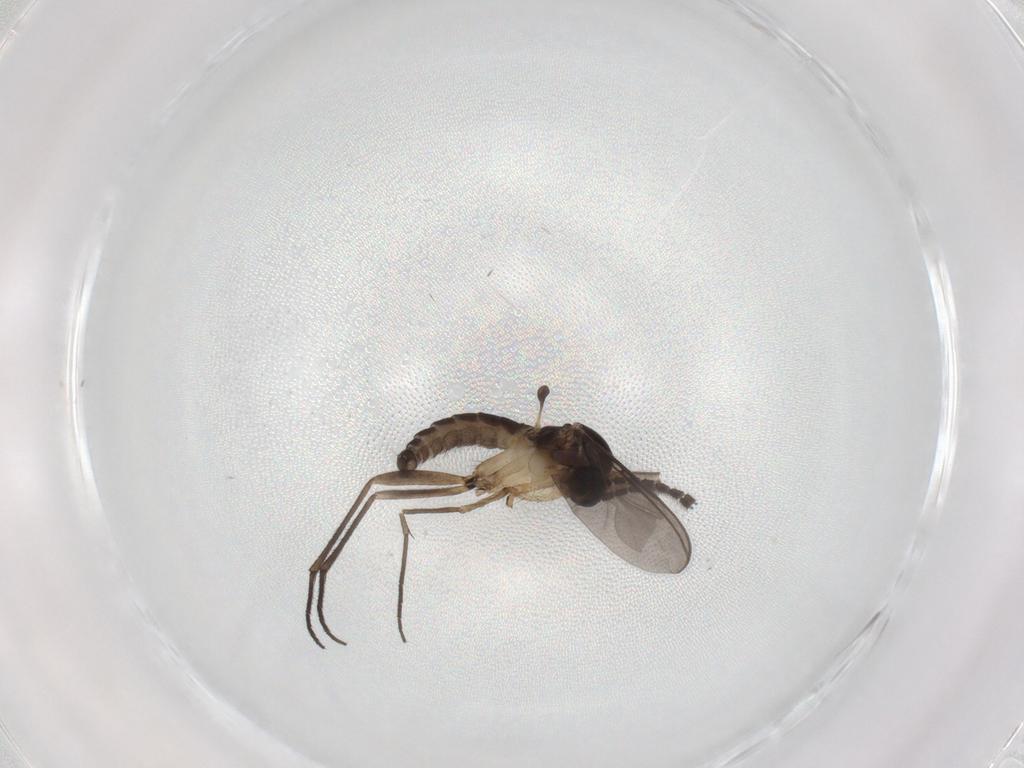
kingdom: Animalia
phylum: Arthropoda
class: Insecta
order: Diptera
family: Sciaridae
